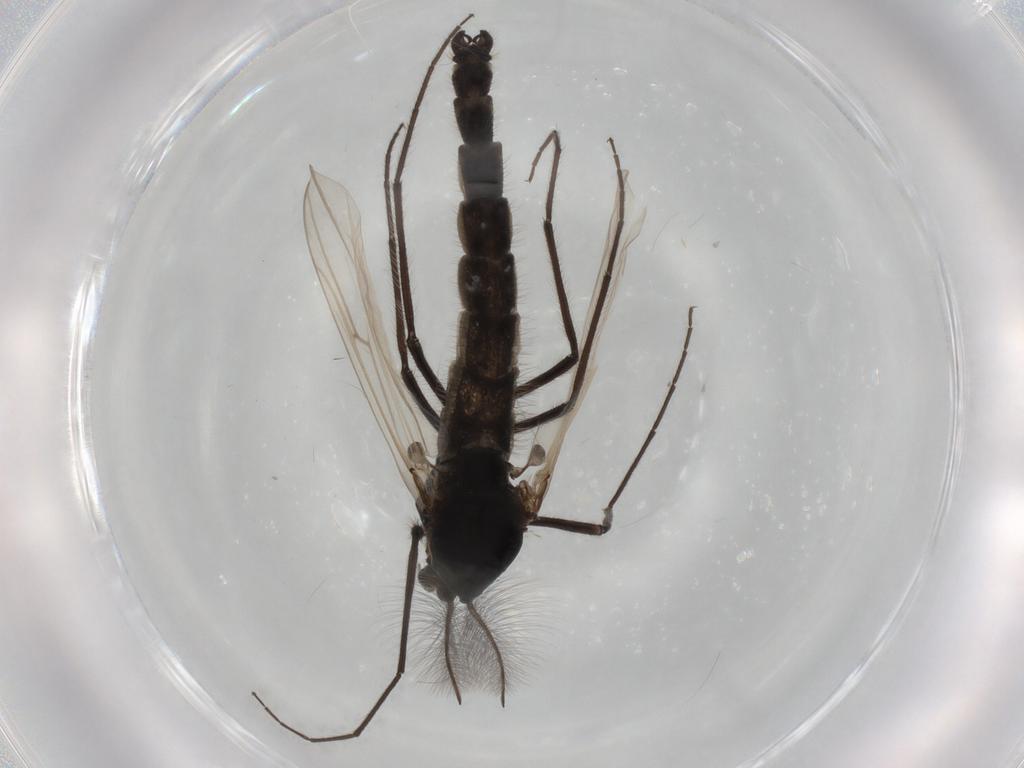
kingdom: Animalia
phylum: Arthropoda
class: Insecta
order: Diptera
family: Chironomidae
